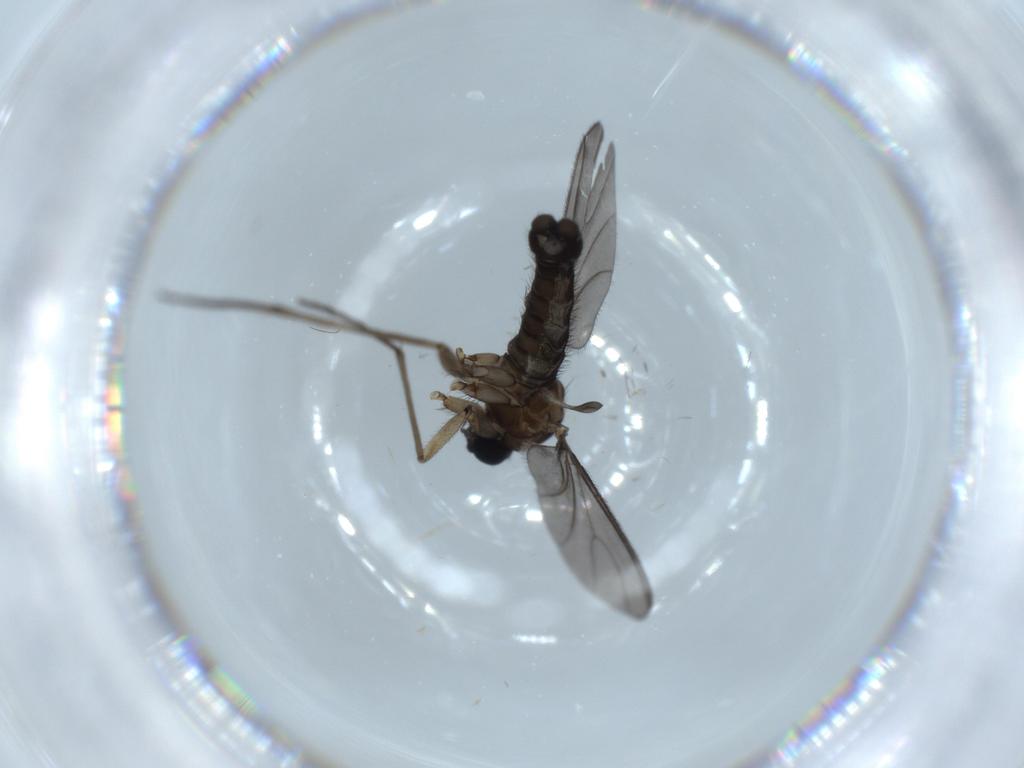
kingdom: Animalia
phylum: Arthropoda
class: Insecta
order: Diptera
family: Sciaridae
